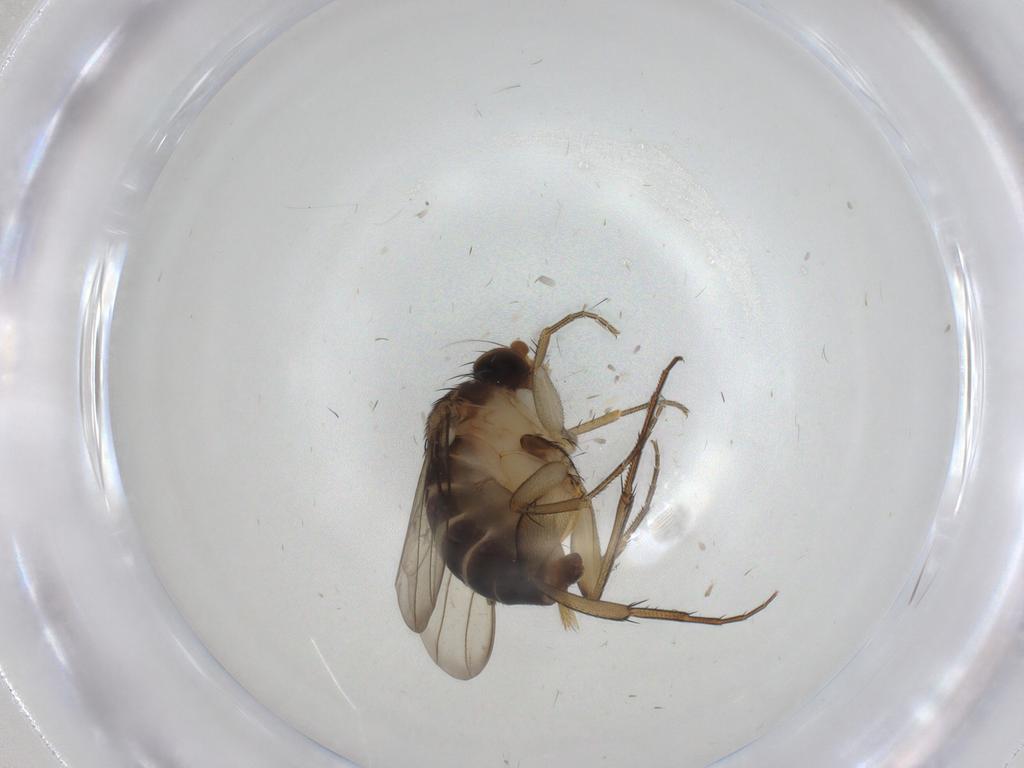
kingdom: Animalia
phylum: Arthropoda
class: Insecta
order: Diptera
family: Phoridae
